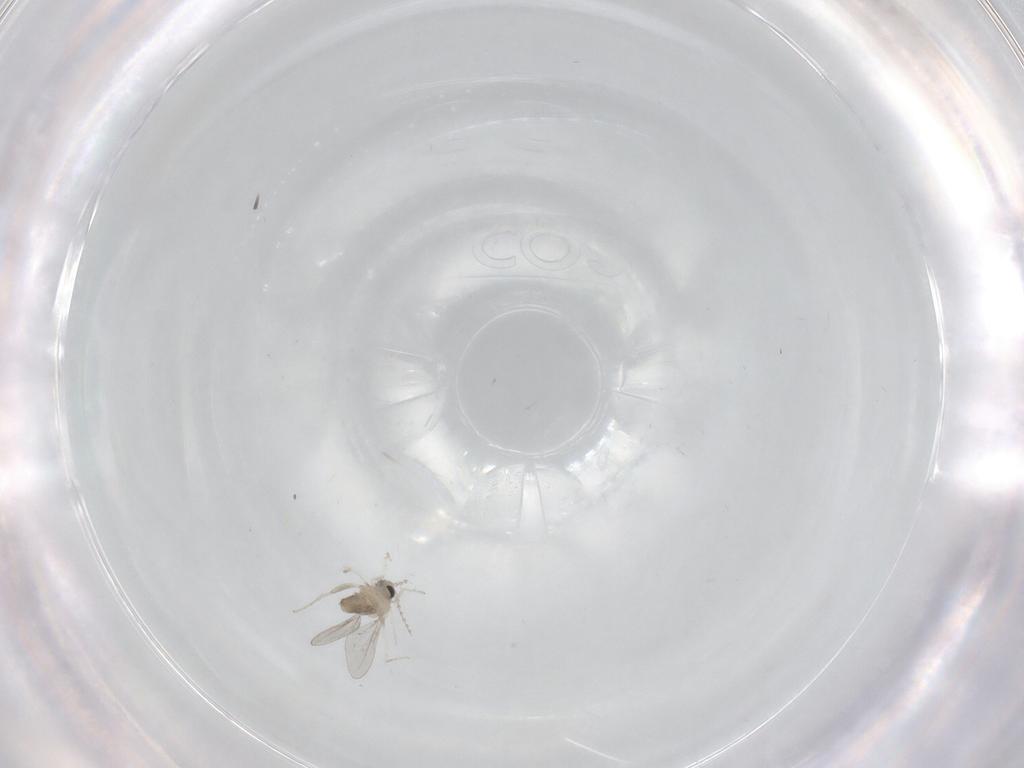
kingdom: Animalia
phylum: Arthropoda
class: Insecta
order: Diptera
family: Cecidomyiidae
